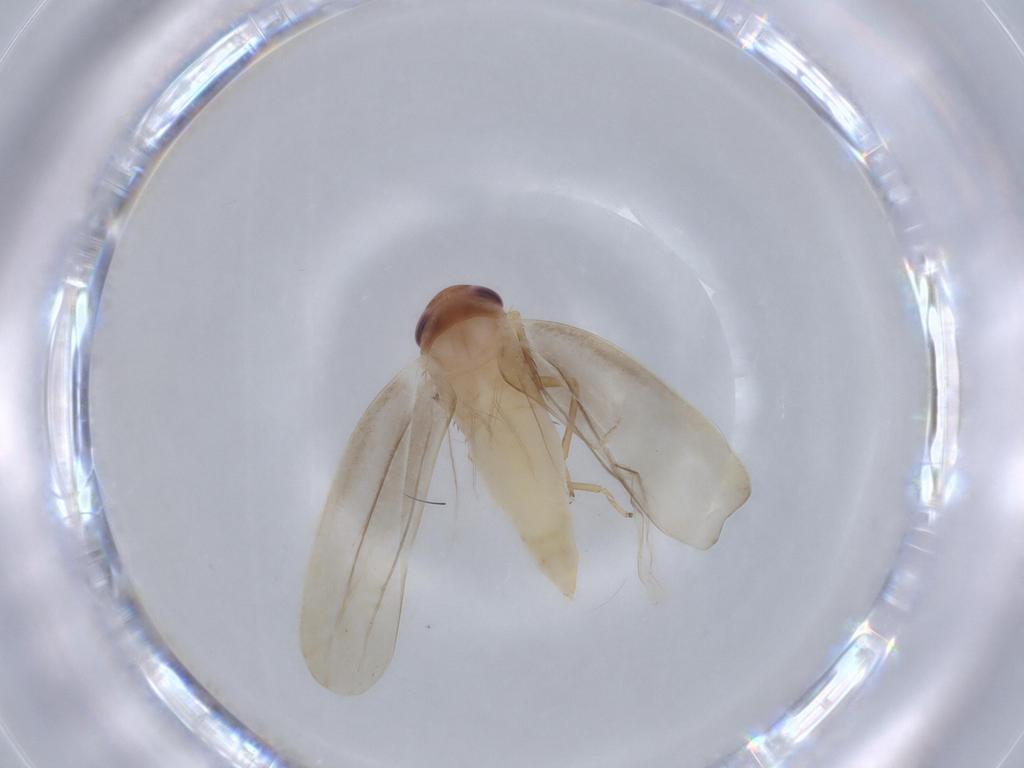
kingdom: Animalia
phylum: Arthropoda
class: Insecta
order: Hemiptera
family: Cicadellidae
